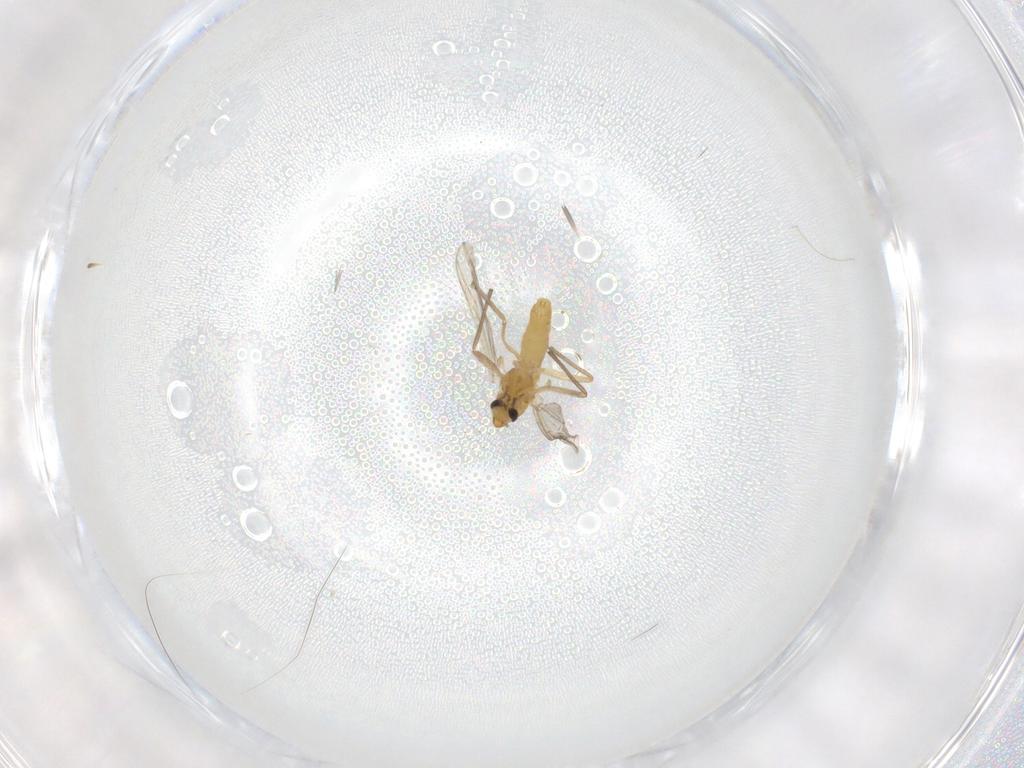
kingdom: Animalia
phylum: Arthropoda
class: Insecta
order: Diptera
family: Chironomidae
